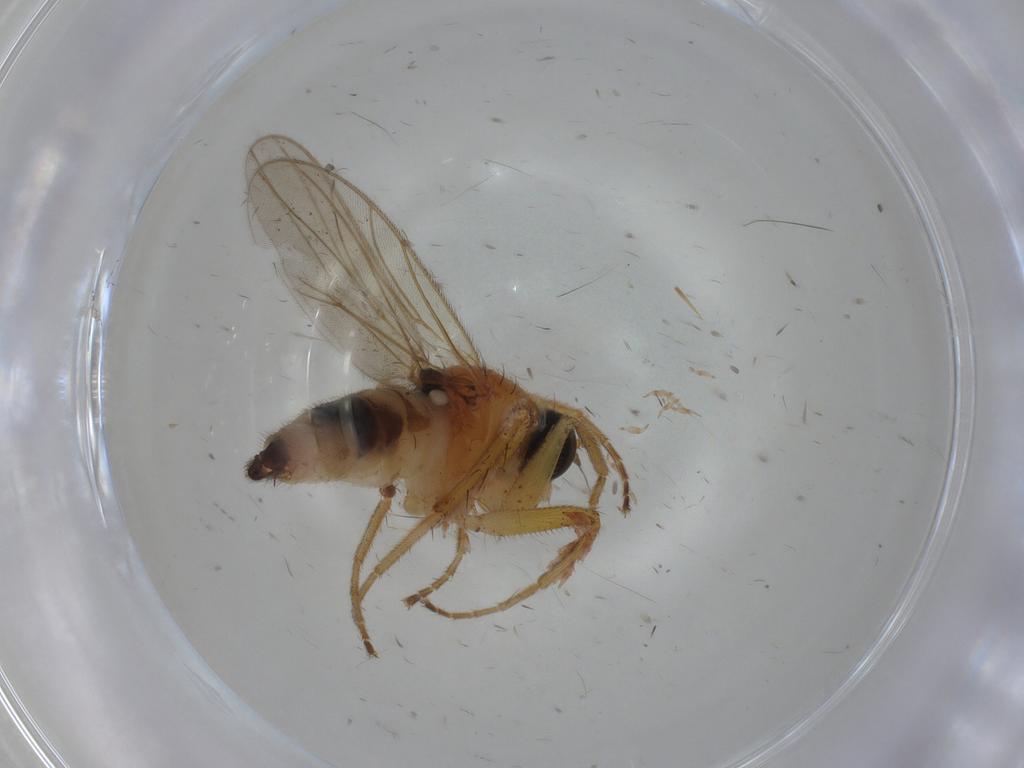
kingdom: Animalia
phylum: Arthropoda
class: Insecta
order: Diptera
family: Hybotidae
